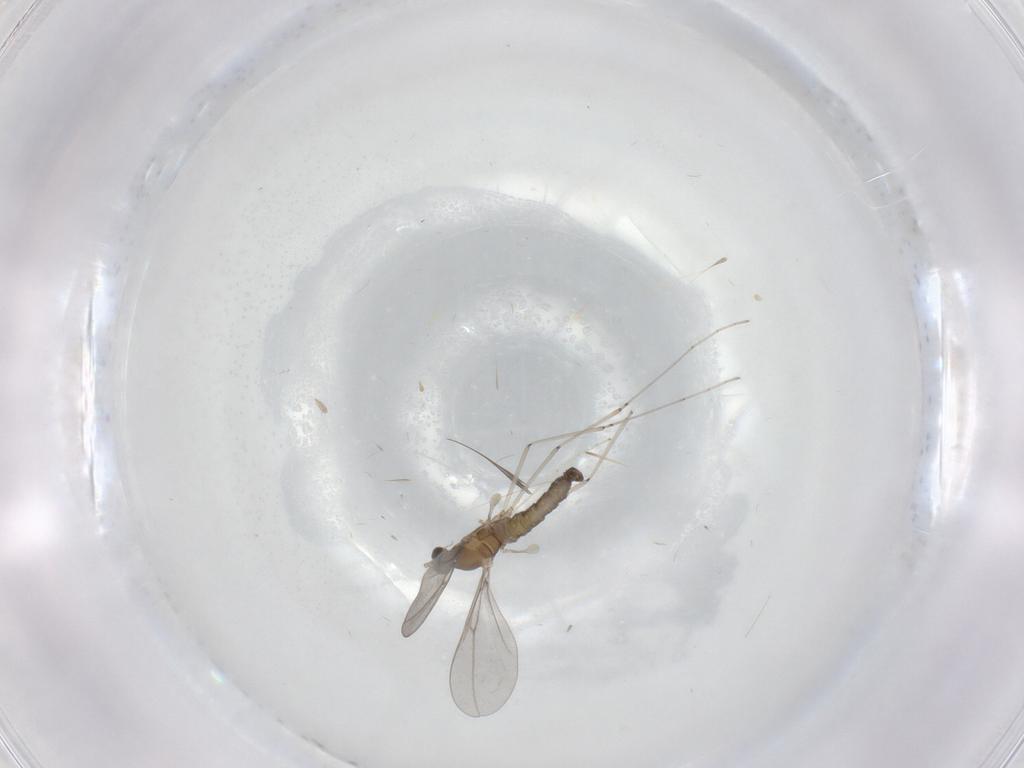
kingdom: Animalia
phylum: Arthropoda
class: Insecta
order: Diptera
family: Cecidomyiidae
